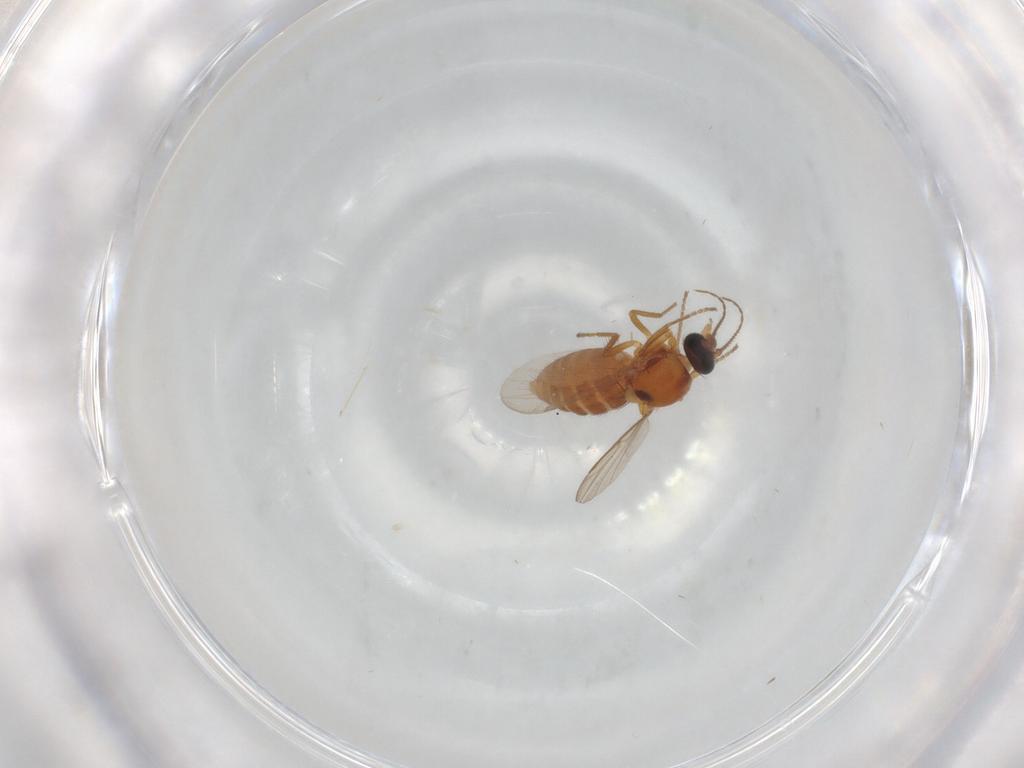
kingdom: Animalia
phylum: Arthropoda
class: Insecta
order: Diptera
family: Cecidomyiidae
